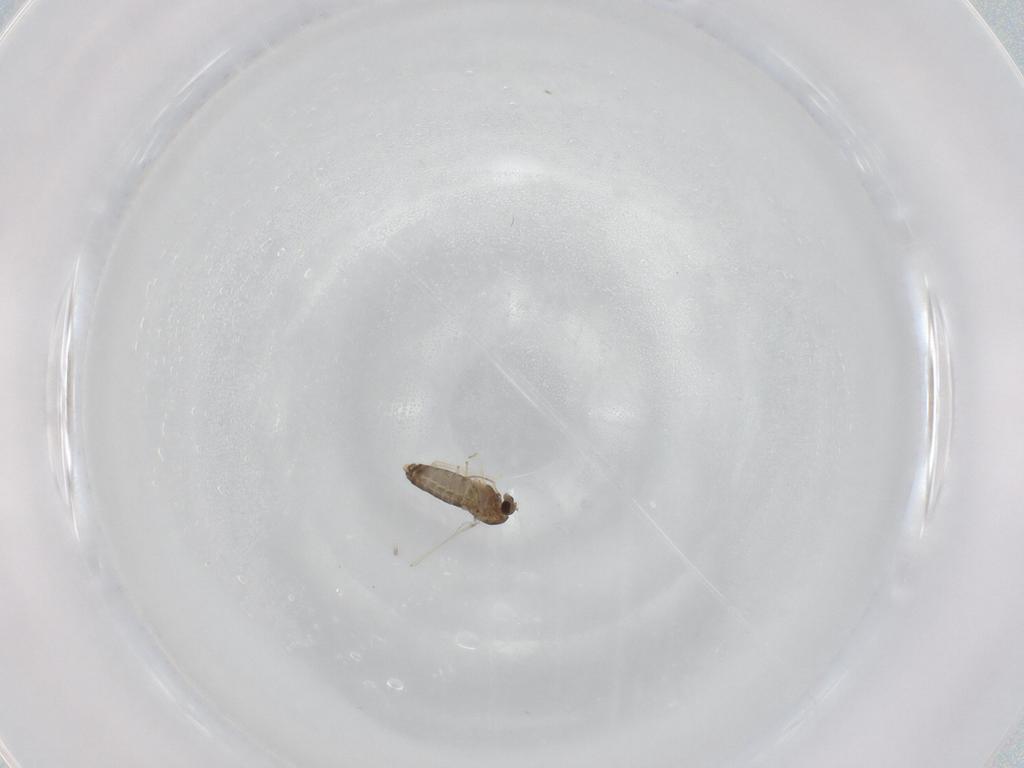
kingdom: Animalia
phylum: Arthropoda
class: Insecta
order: Diptera
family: Chironomidae
